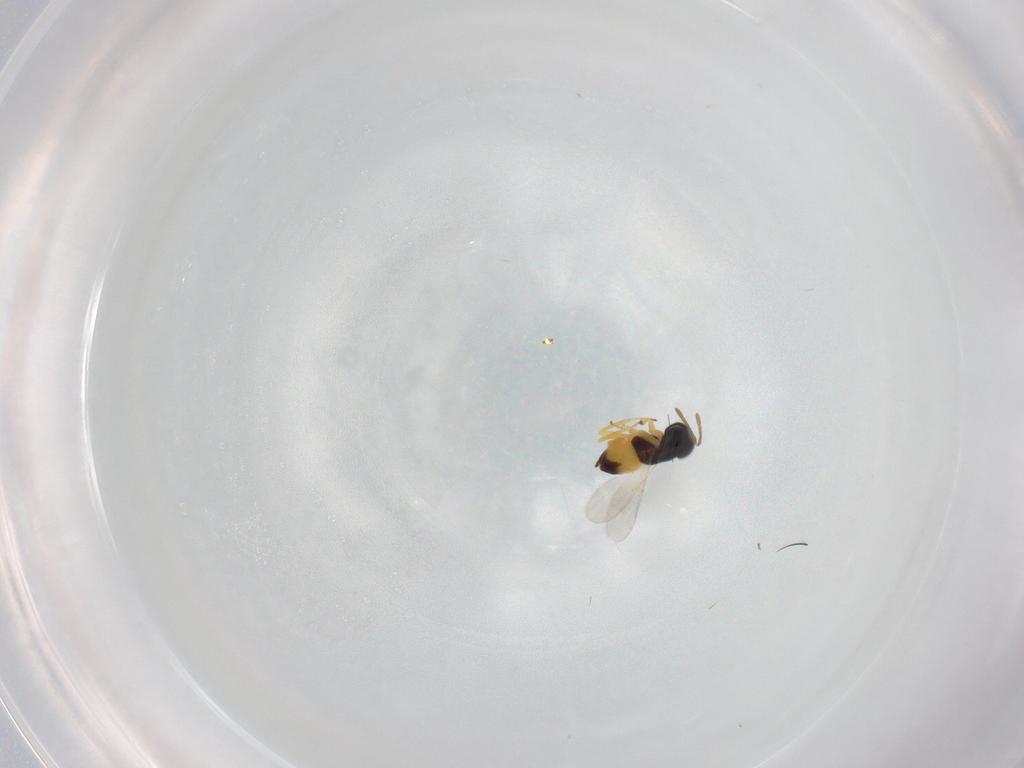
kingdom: Animalia
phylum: Arthropoda
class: Insecta
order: Hymenoptera
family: Encyrtidae
